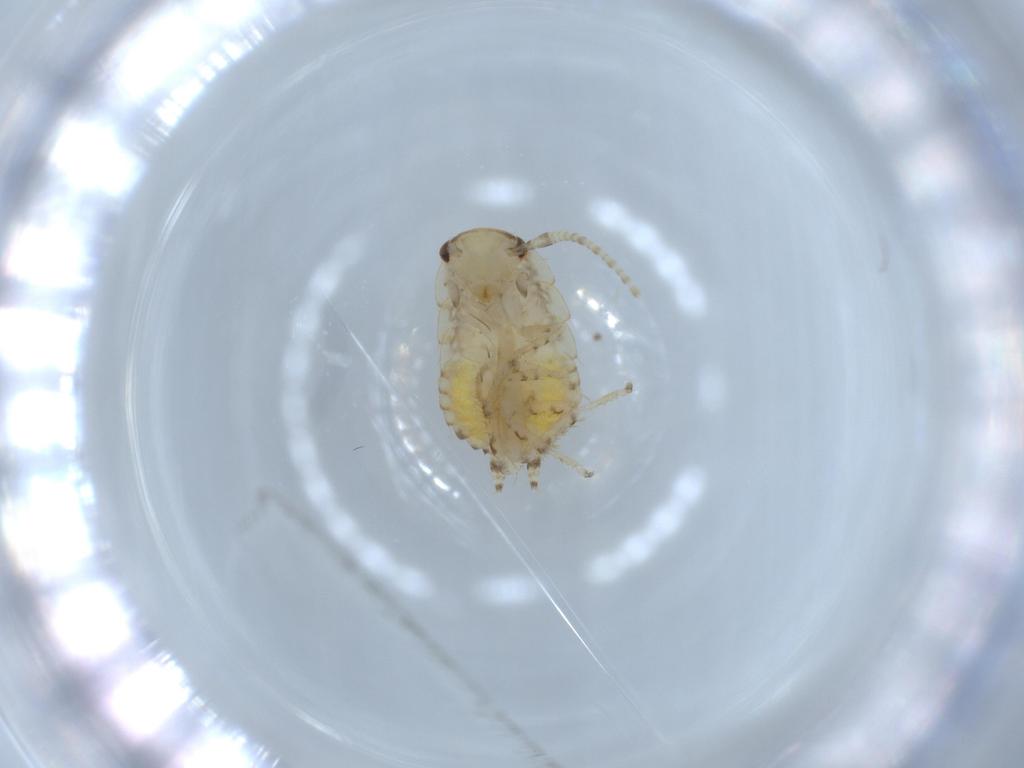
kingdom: Animalia
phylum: Arthropoda
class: Insecta
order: Blattodea
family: Ectobiidae
